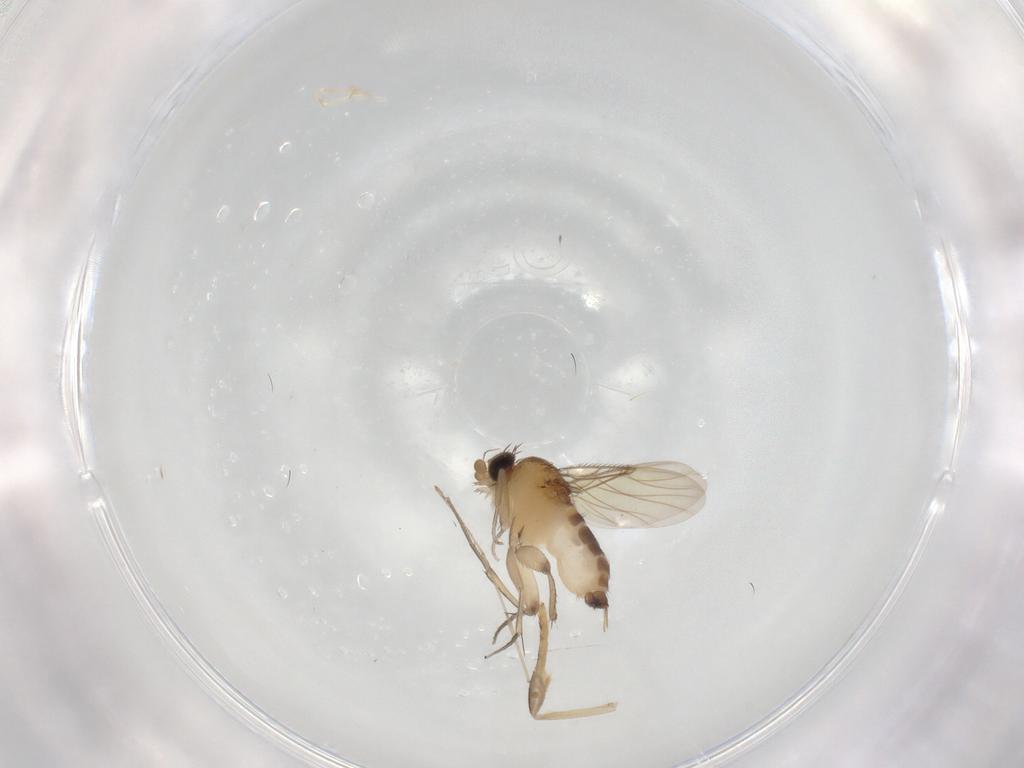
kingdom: Animalia
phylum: Arthropoda
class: Insecta
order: Diptera
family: Phoridae
